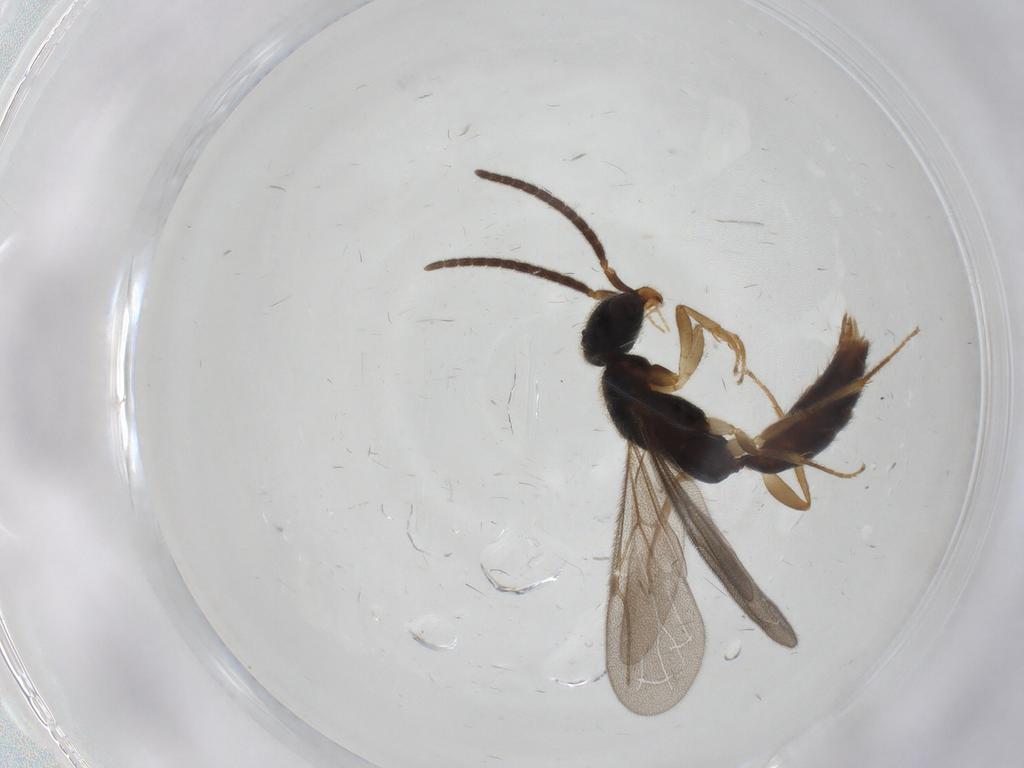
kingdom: Animalia
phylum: Arthropoda
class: Insecta
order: Hymenoptera
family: Bethylidae
